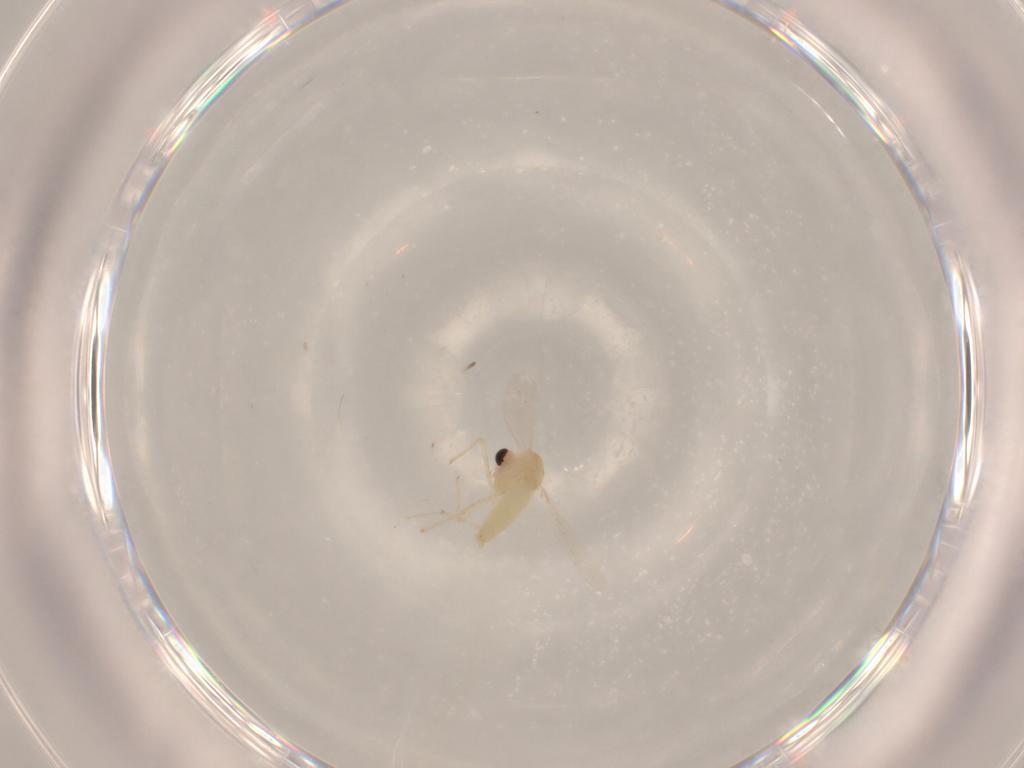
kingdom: Animalia
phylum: Arthropoda
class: Insecta
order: Diptera
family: Chironomidae
